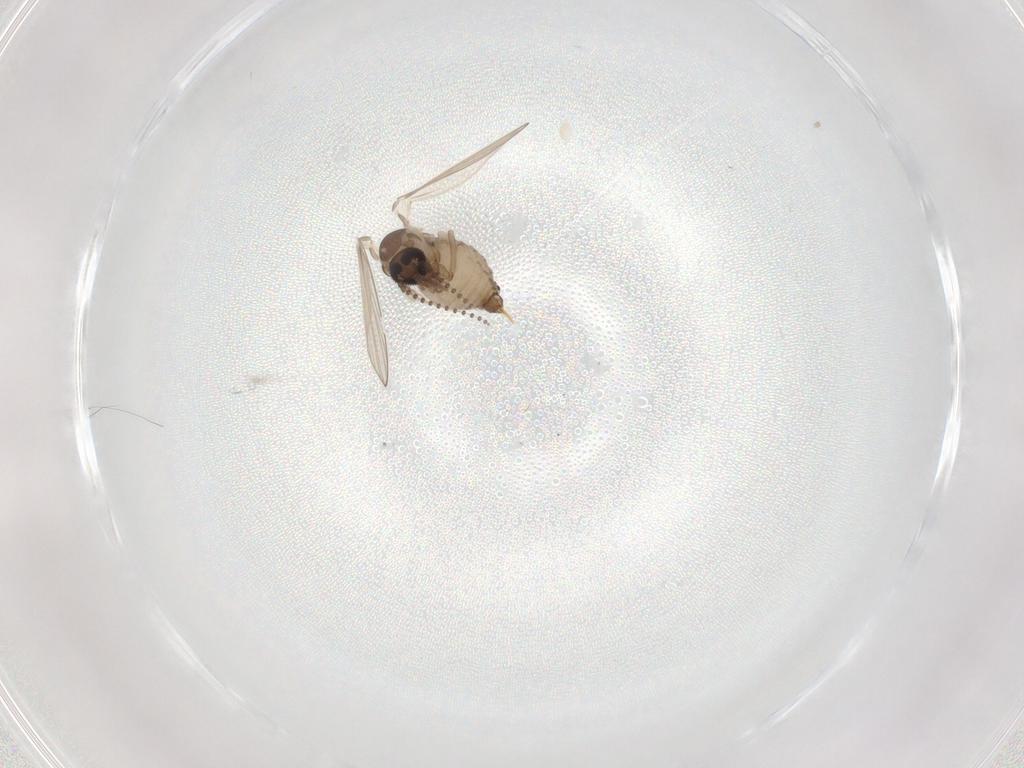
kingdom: Animalia
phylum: Arthropoda
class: Insecta
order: Diptera
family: Psychodidae
